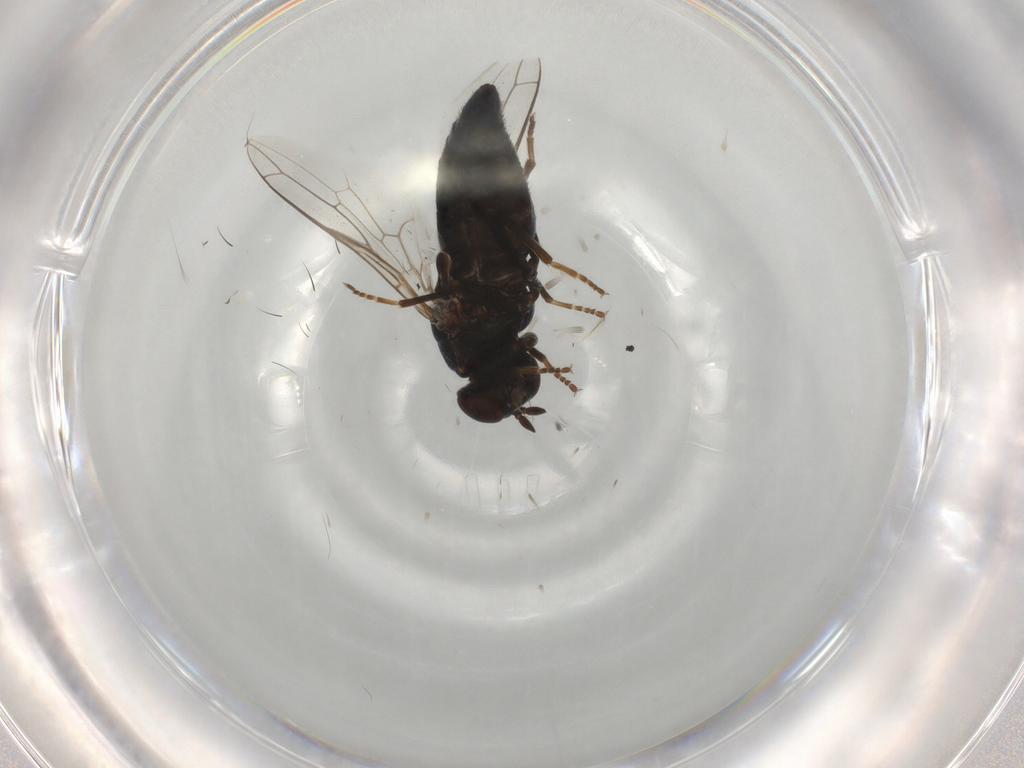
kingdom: Animalia
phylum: Arthropoda
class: Insecta
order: Diptera
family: Scenopinidae
